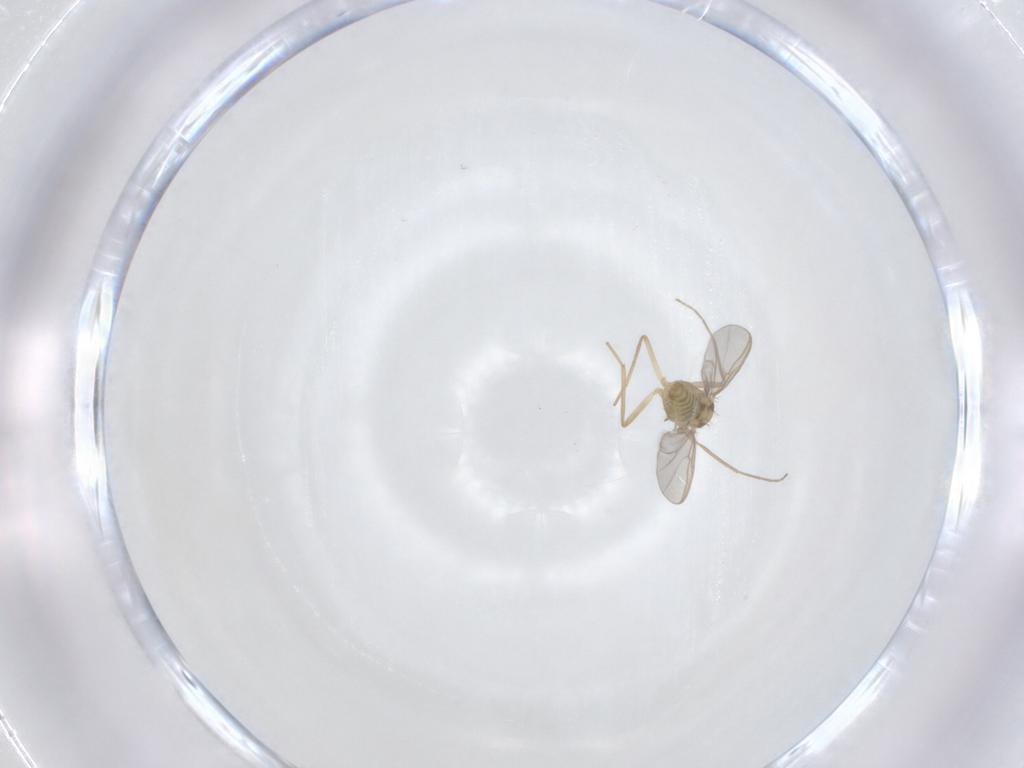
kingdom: Animalia
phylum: Arthropoda
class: Insecta
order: Diptera
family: Chironomidae
